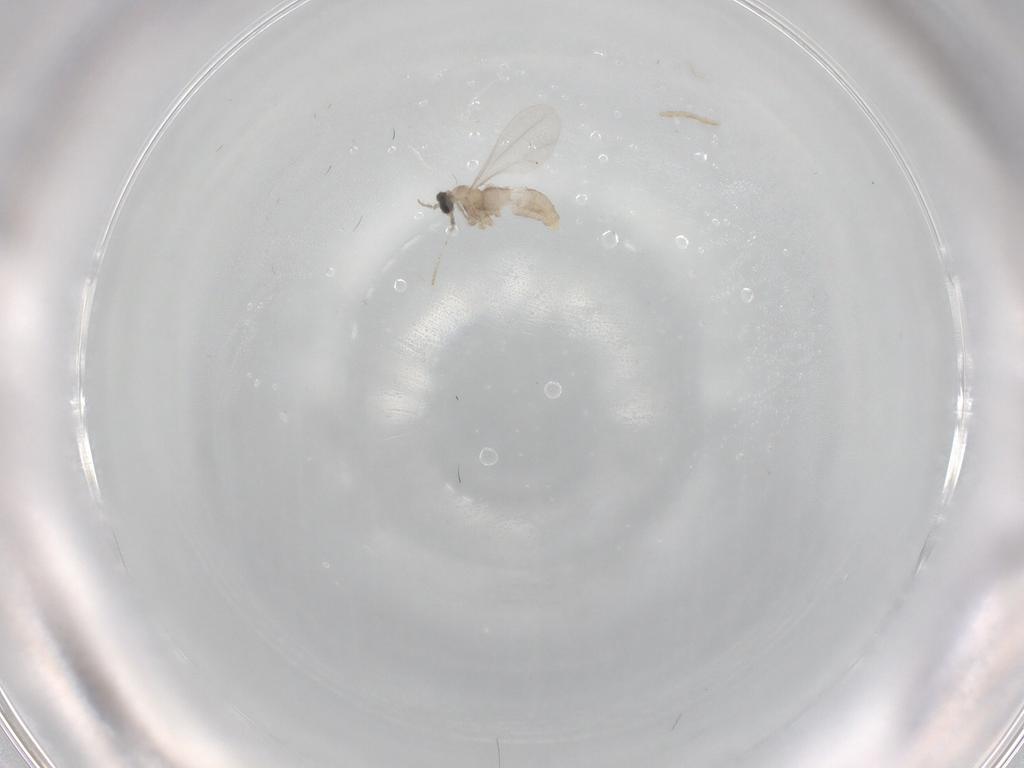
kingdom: Animalia
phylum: Arthropoda
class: Insecta
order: Diptera
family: Cecidomyiidae
